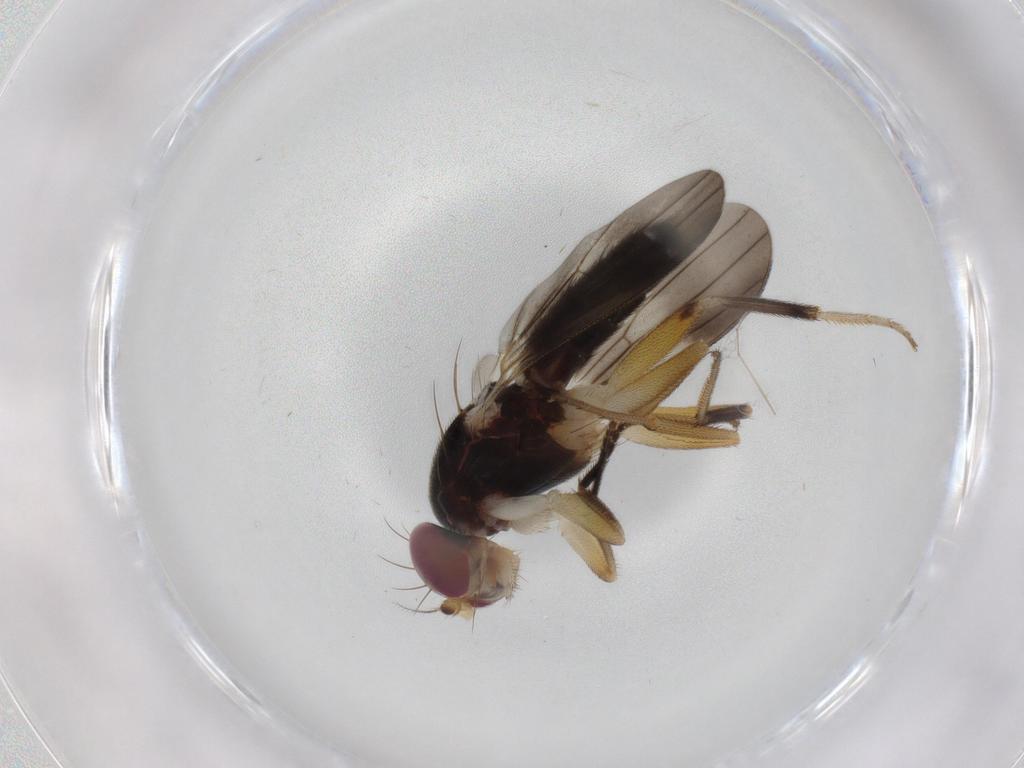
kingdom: Animalia
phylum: Arthropoda
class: Insecta
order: Diptera
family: Clusiidae
